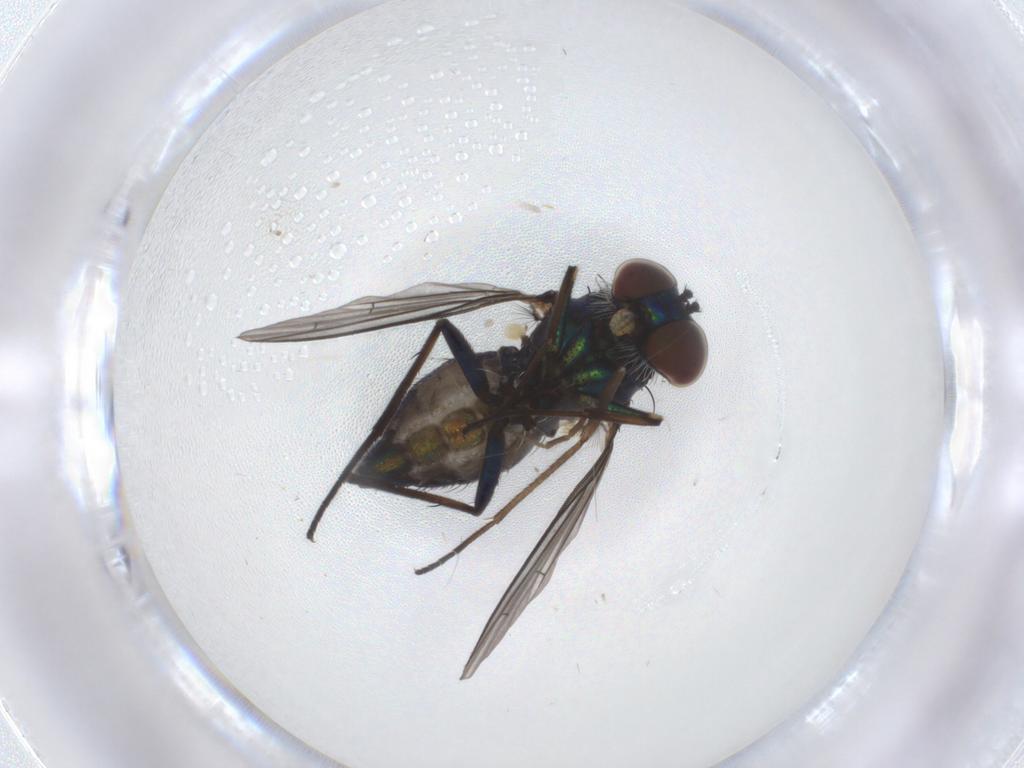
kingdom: Animalia
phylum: Arthropoda
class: Insecta
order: Diptera
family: Dolichopodidae
